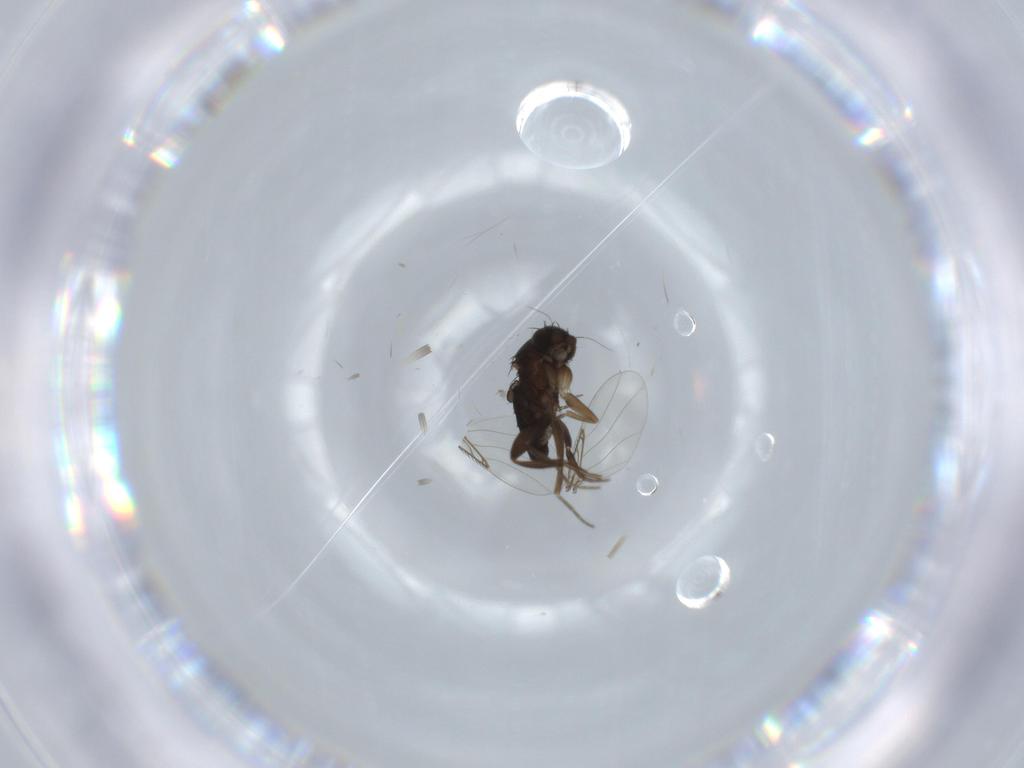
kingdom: Animalia
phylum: Arthropoda
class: Insecta
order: Diptera
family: Phoridae
